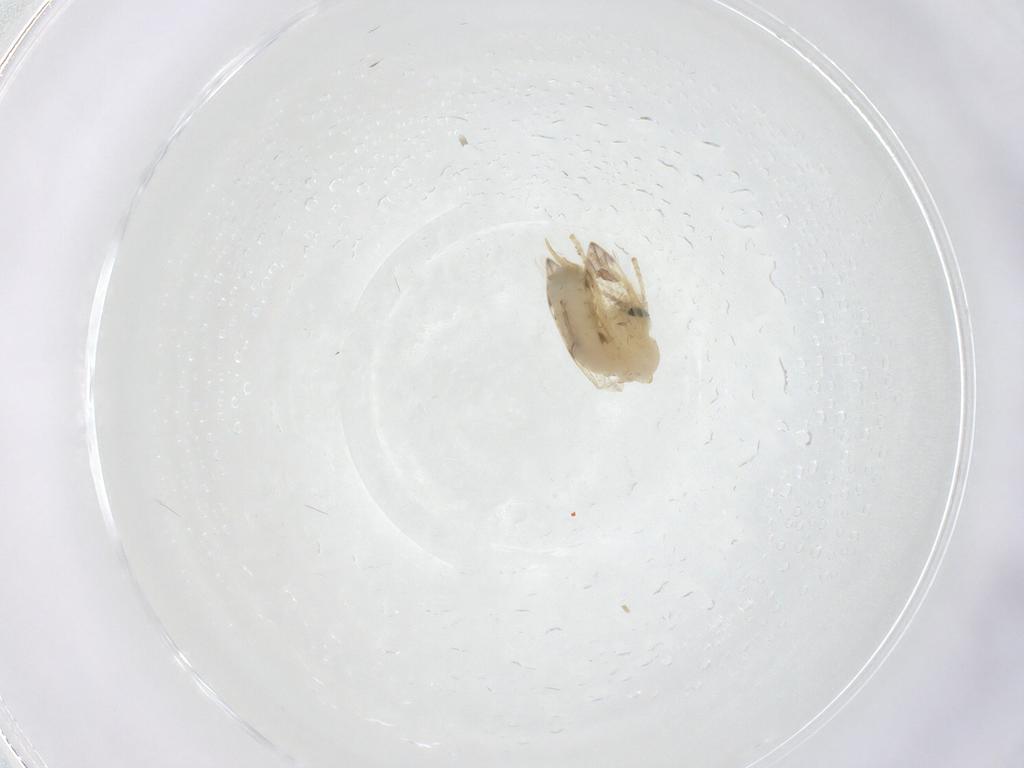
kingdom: Animalia
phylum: Arthropoda
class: Insecta
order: Diptera
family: Psychodidae
